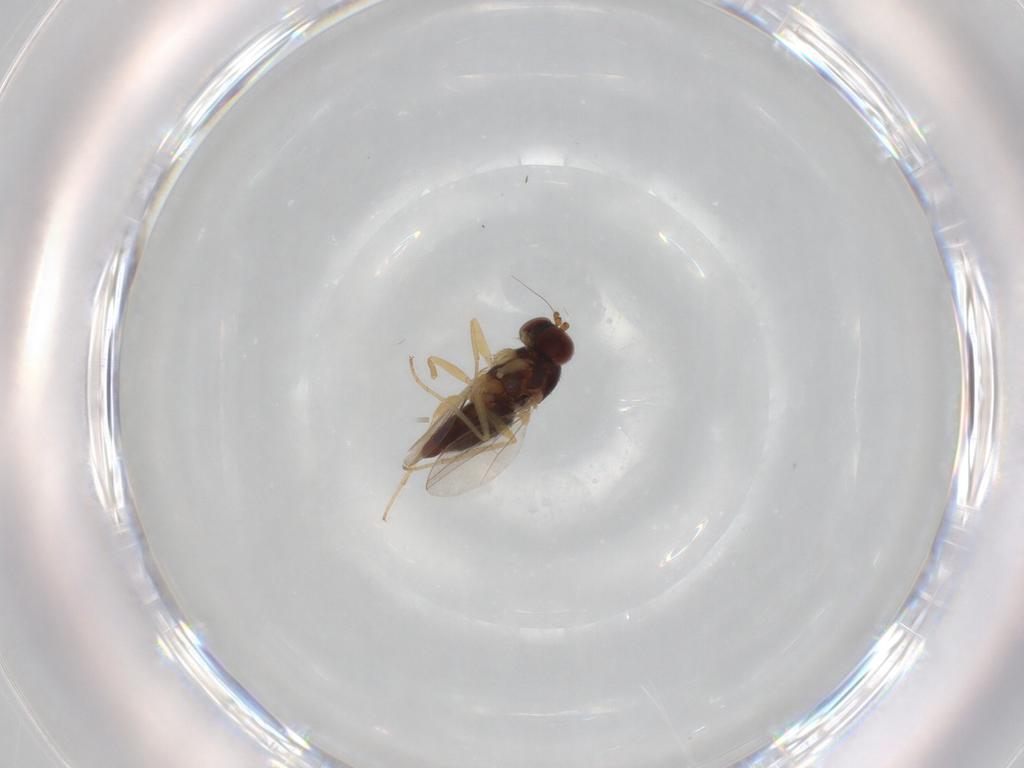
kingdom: Animalia
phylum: Arthropoda
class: Insecta
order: Diptera
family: Dolichopodidae
